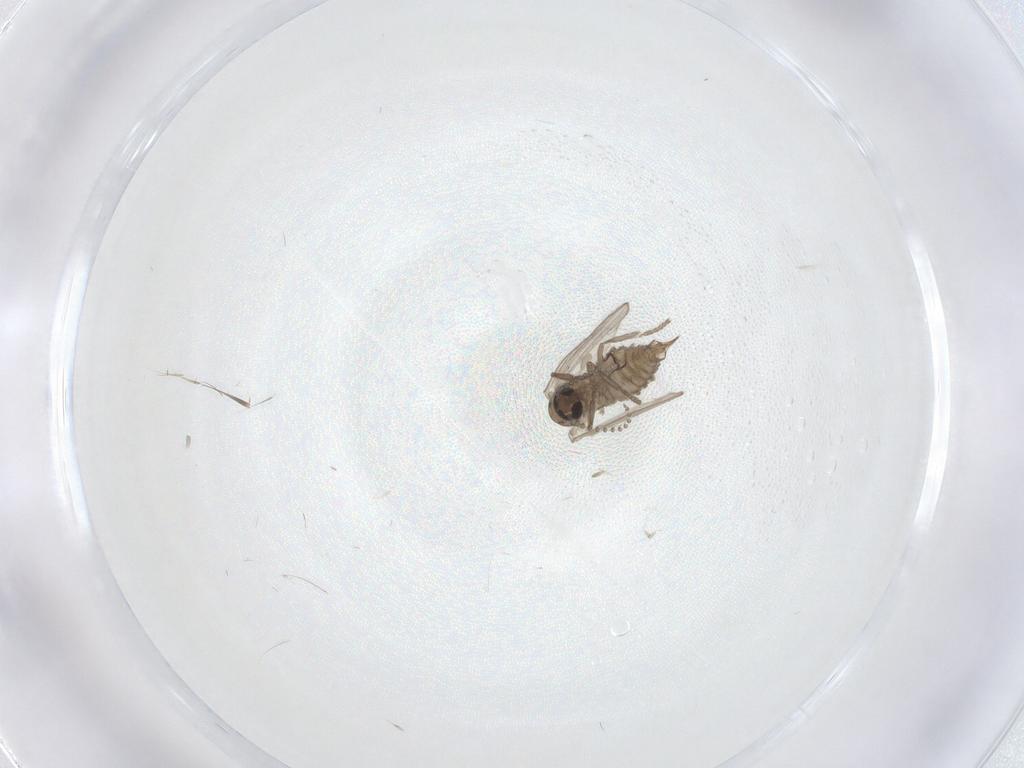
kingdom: Animalia
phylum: Arthropoda
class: Insecta
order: Diptera
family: Psychodidae
